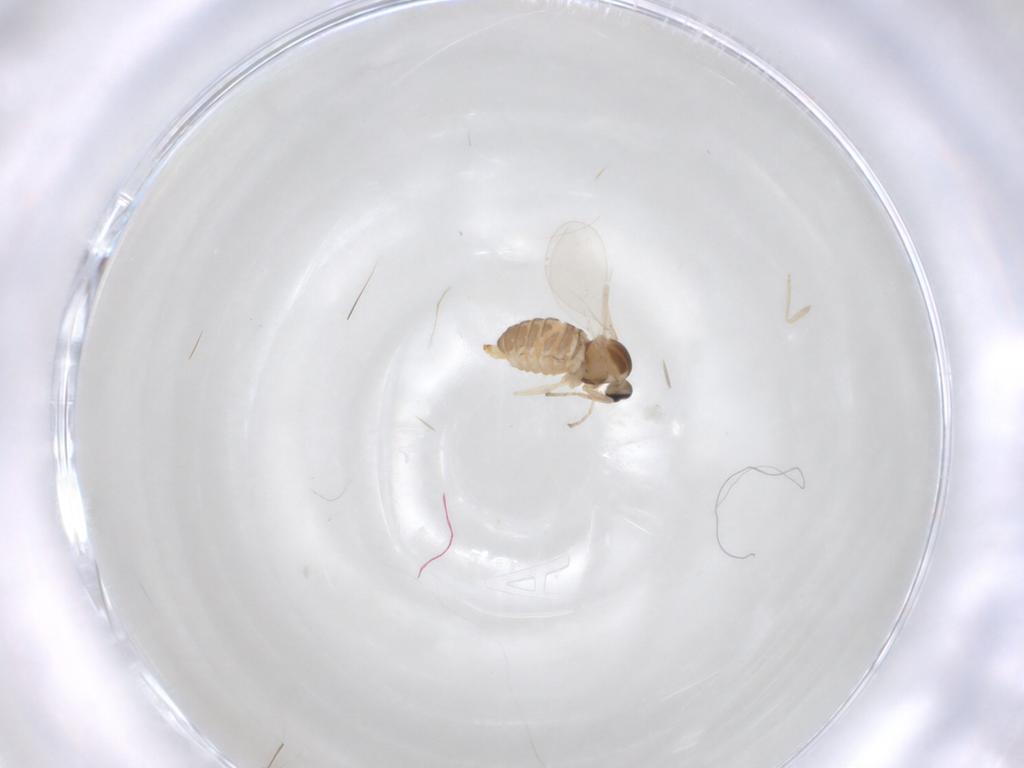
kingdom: Animalia
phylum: Arthropoda
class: Insecta
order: Diptera
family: Cecidomyiidae
